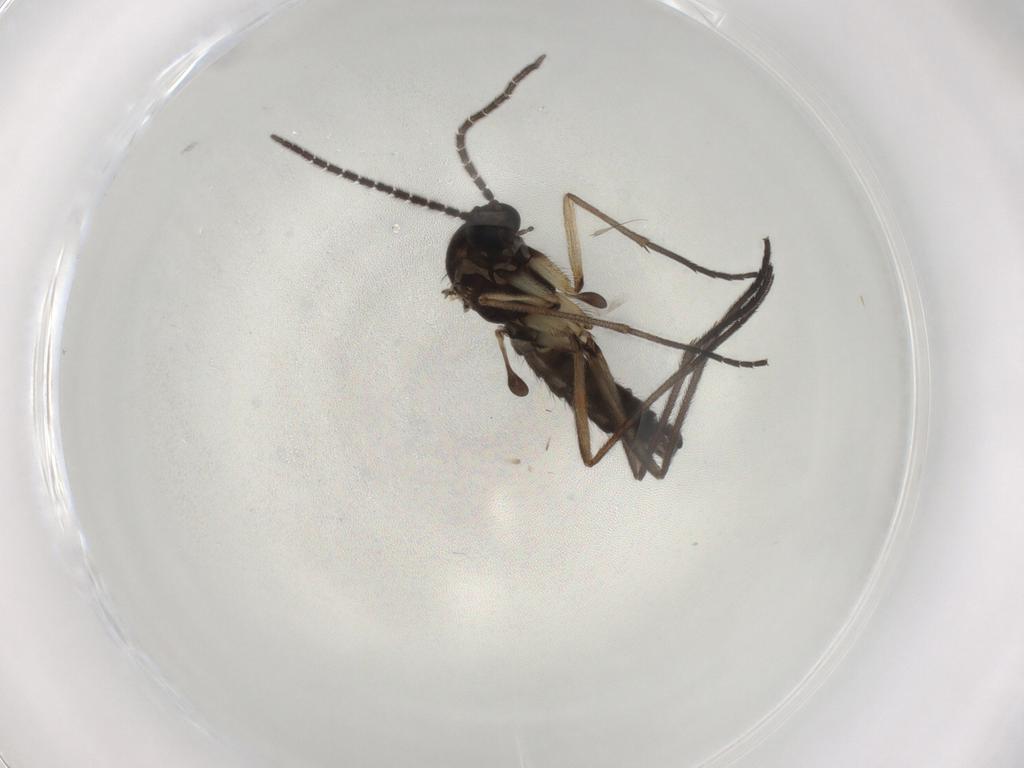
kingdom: Animalia
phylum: Arthropoda
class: Insecta
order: Diptera
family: Sciaridae
